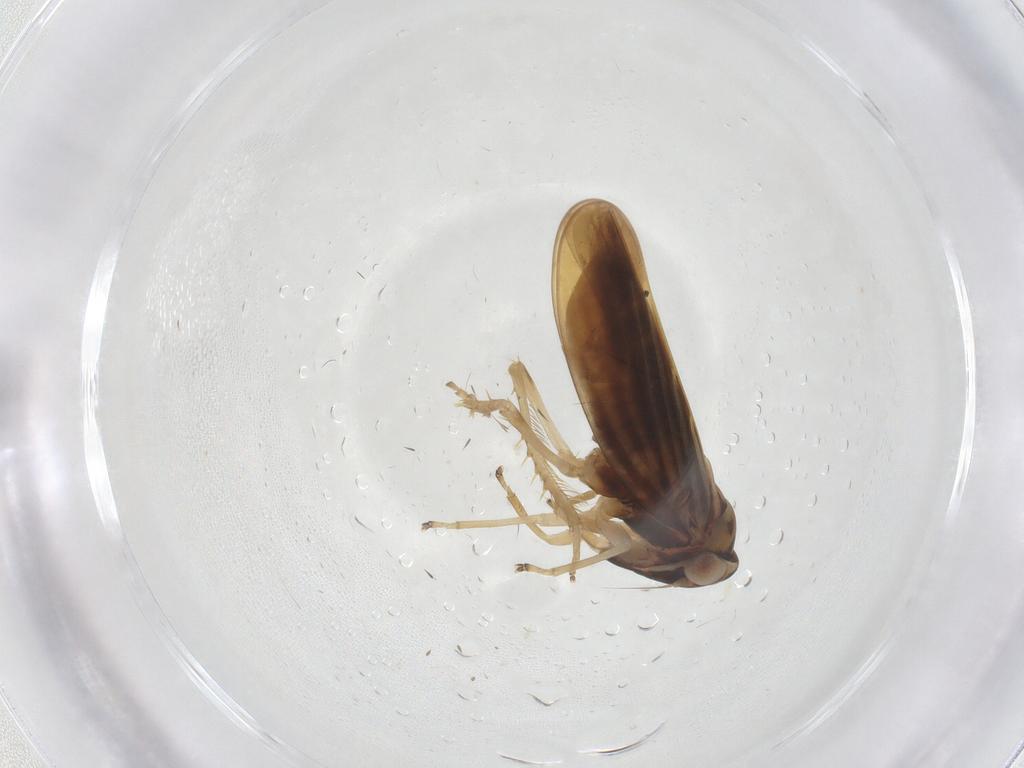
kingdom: Animalia
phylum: Arthropoda
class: Insecta
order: Hemiptera
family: Cicadellidae
